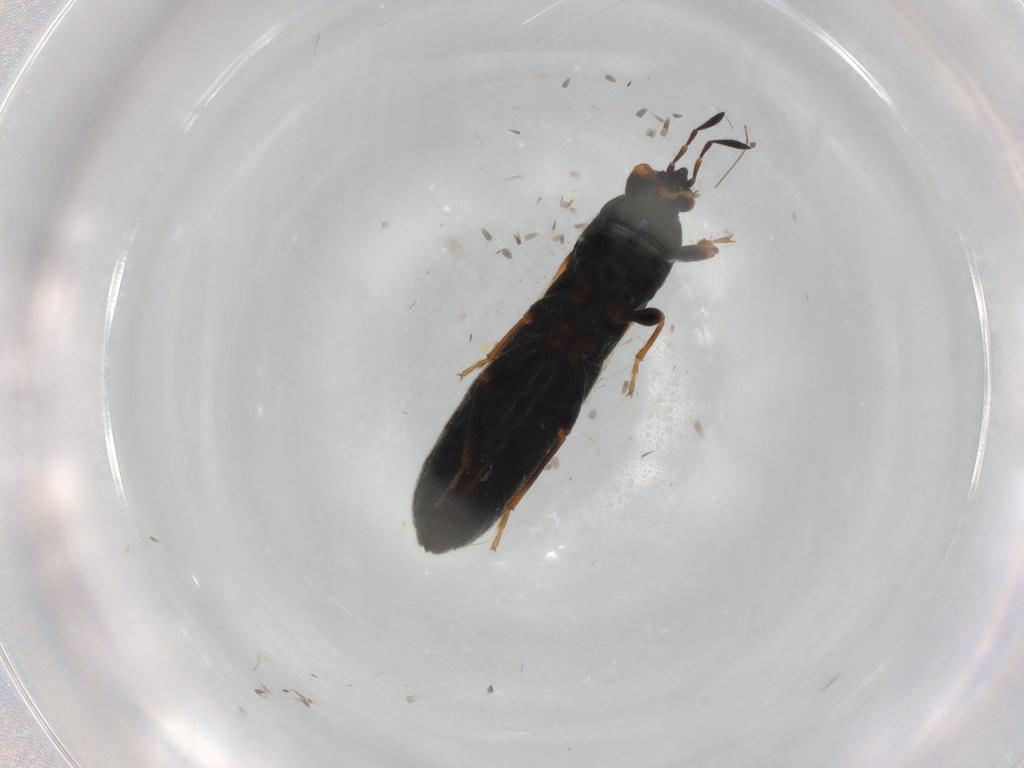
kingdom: Animalia
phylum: Arthropoda
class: Insecta
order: Hemiptera
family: Blissidae
